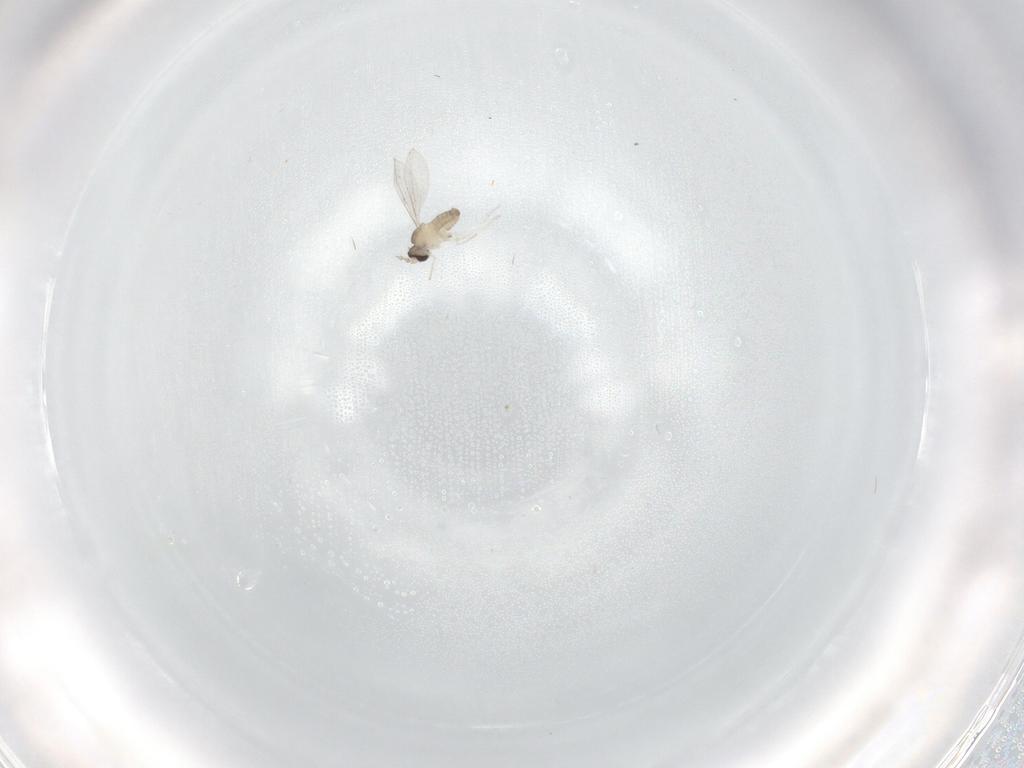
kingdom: Animalia
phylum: Arthropoda
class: Insecta
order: Diptera
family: Cecidomyiidae
